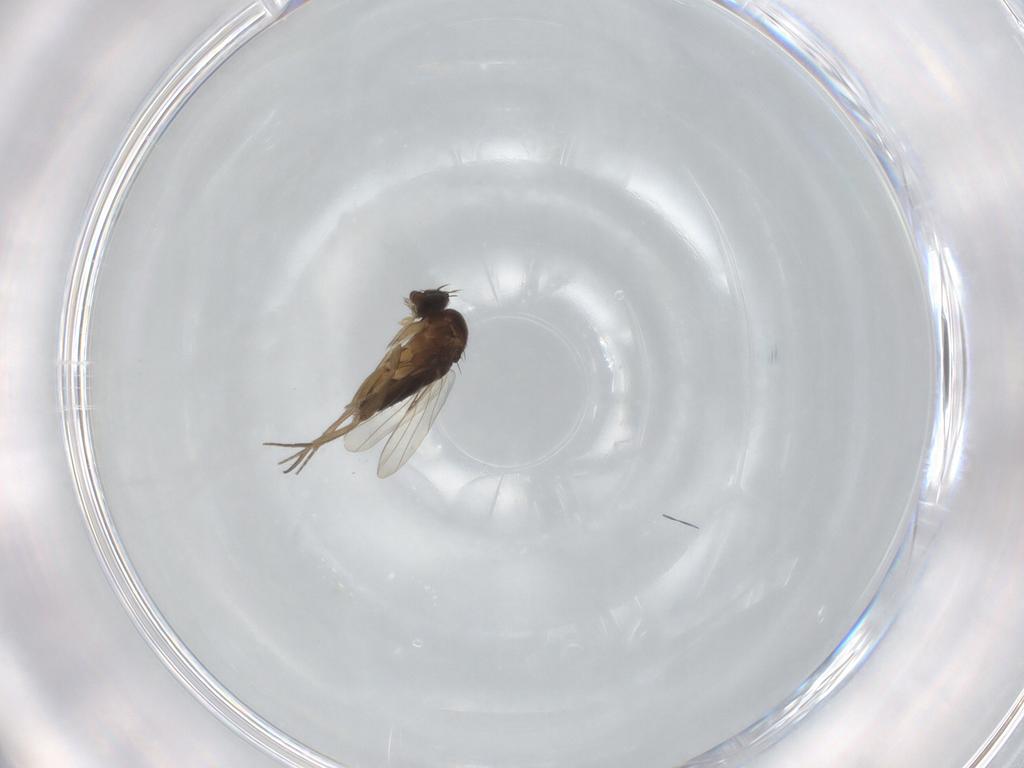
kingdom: Animalia
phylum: Arthropoda
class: Insecta
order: Diptera
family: Phoridae
